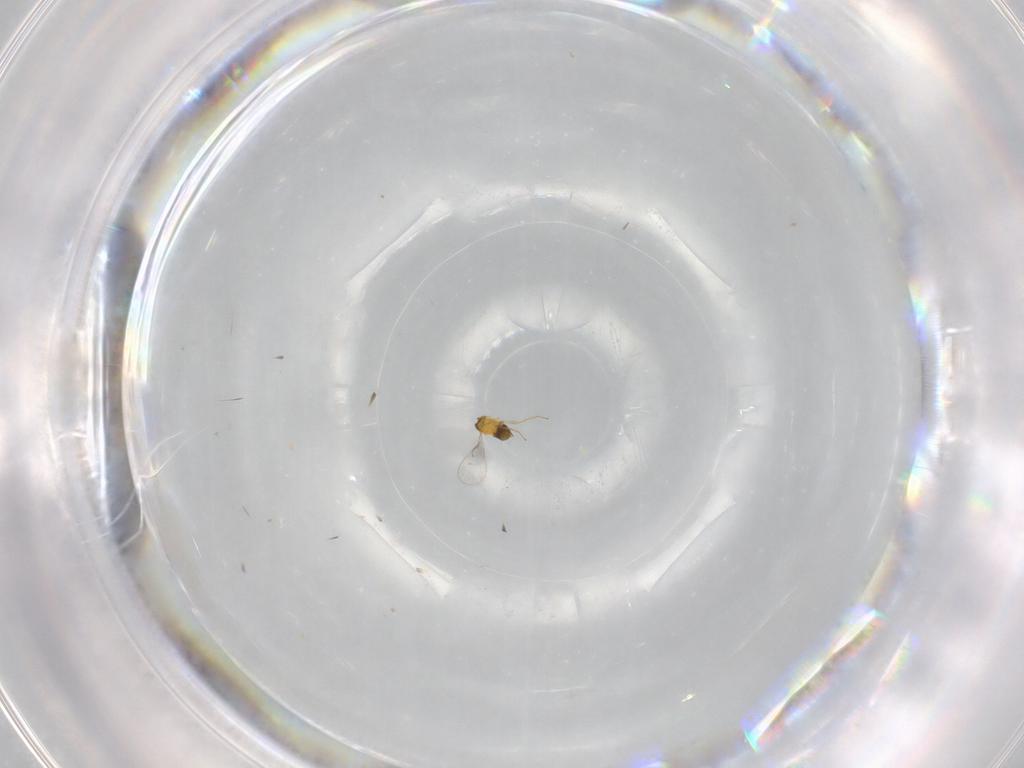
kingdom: Animalia
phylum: Arthropoda
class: Insecta
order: Hymenoptera
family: Trichogrammatidae
